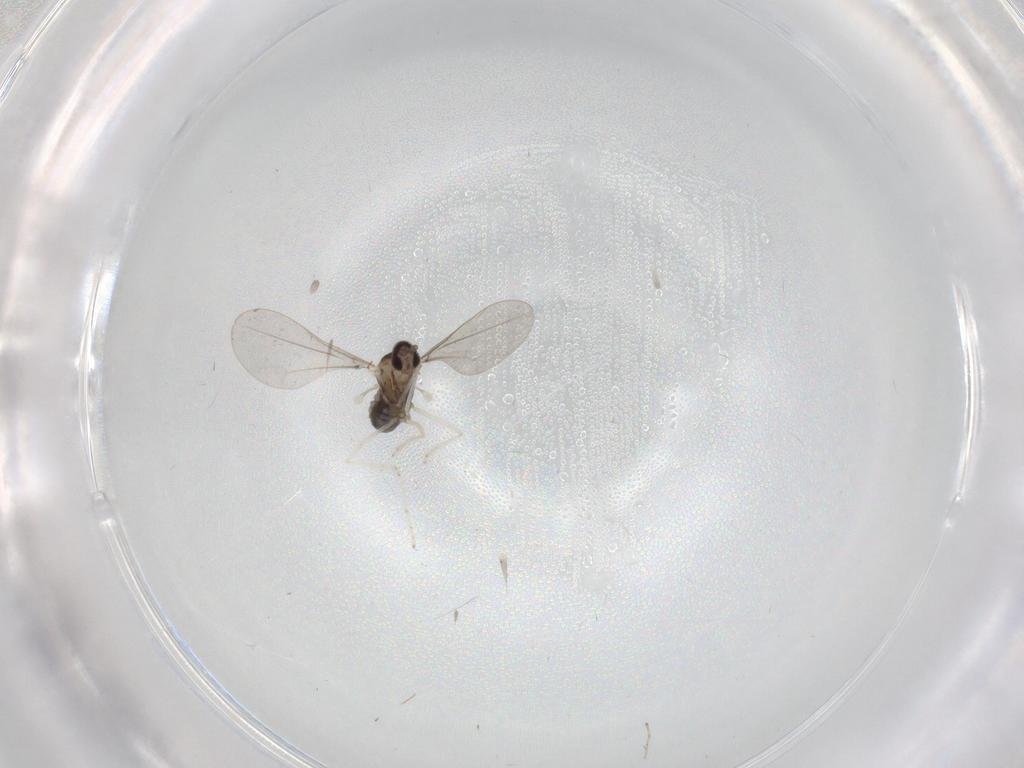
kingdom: Animalia
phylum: Arthropoda
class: Insecta
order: Diptera
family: Cecidomyiidae
